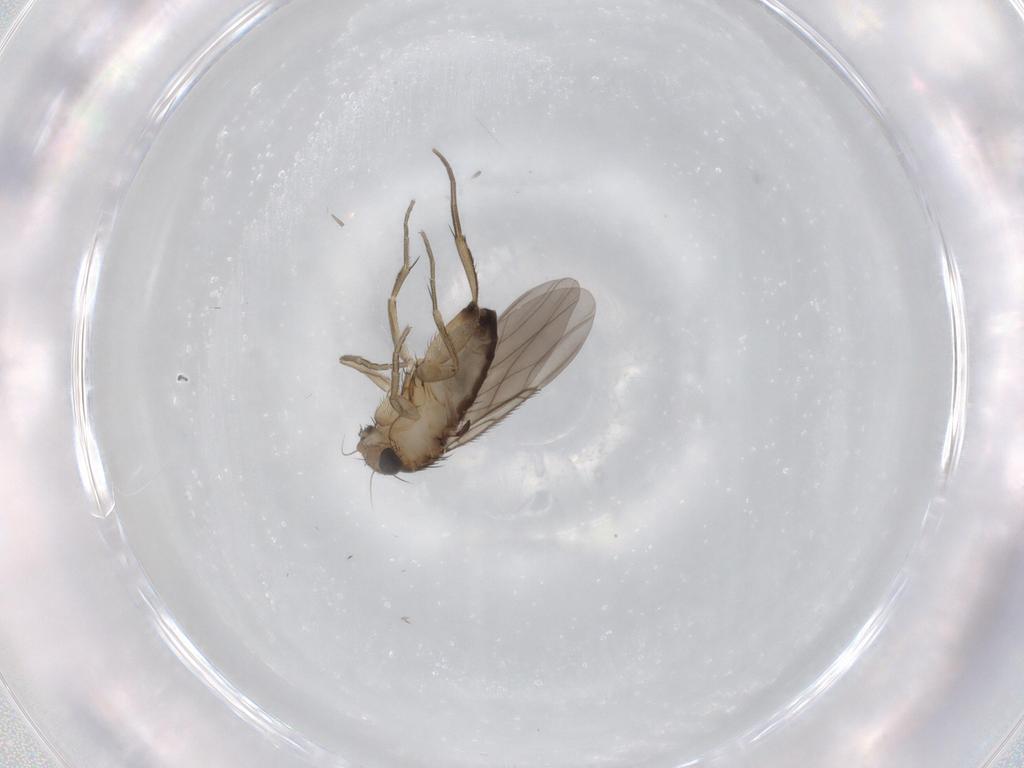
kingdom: Animalia
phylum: Arthropoda
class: Insecta
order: Diptera
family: Phoridae
